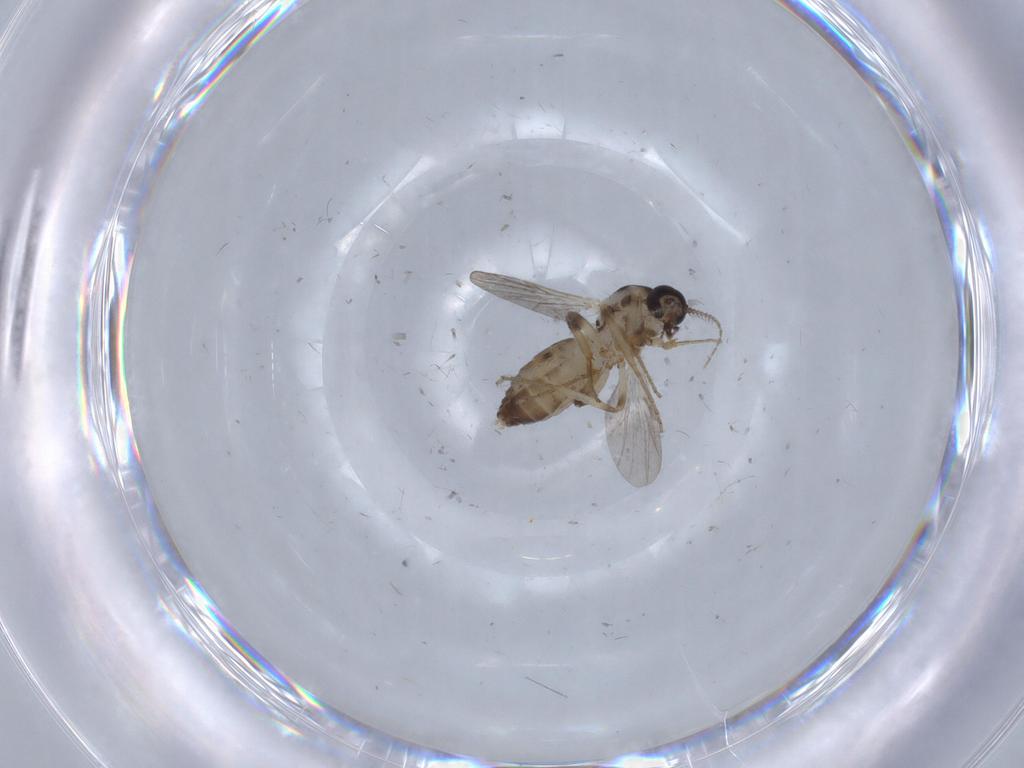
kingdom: Animalia
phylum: Arthropoda
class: Insecta
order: Diptera
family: Ceratopogonidae
